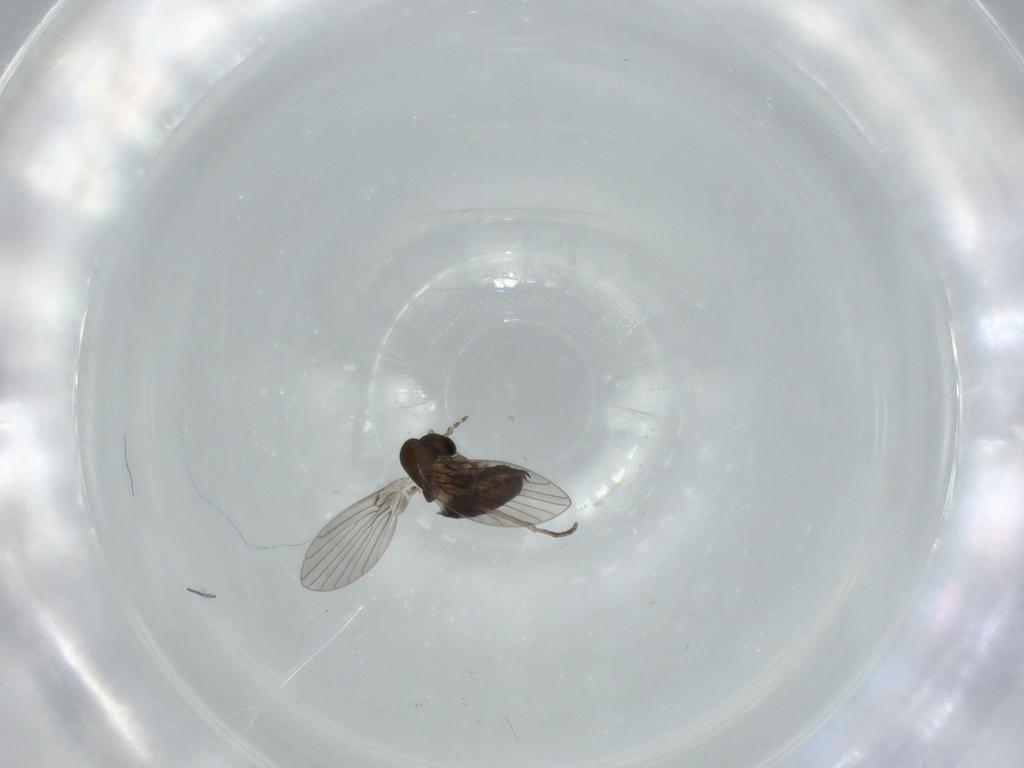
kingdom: Animalia
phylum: Arthropoda
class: Insecta
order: Diptera
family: Psychodidae
